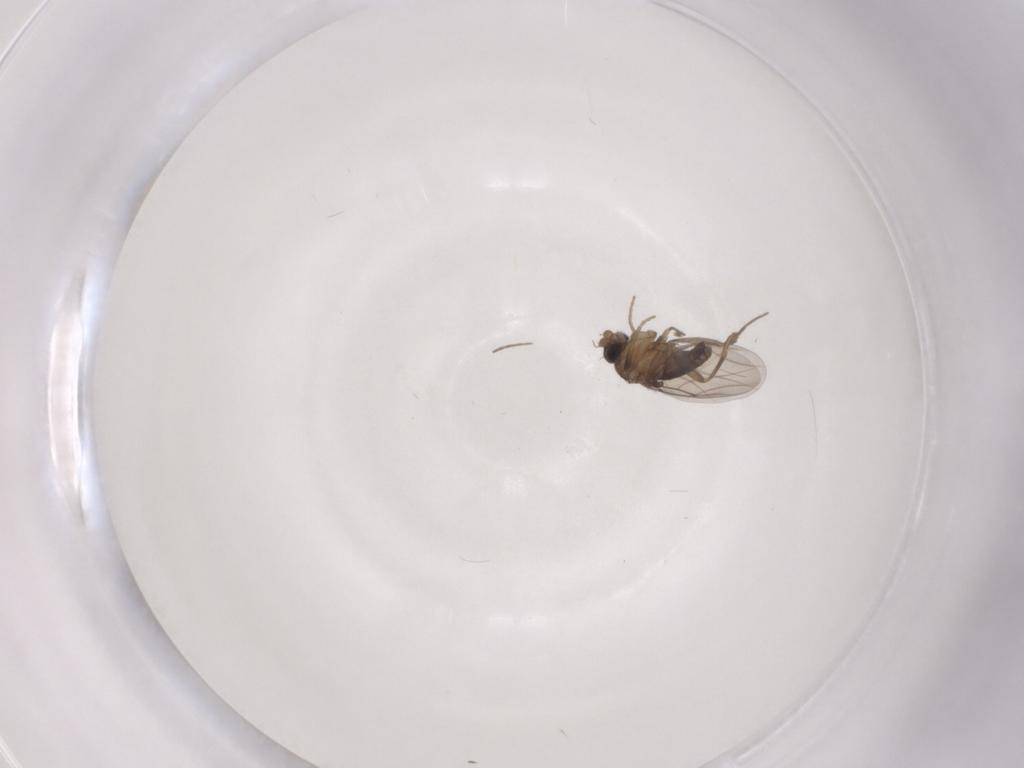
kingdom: Animalia
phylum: Arthropoda
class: Insecta
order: Diptera
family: Phoridae
